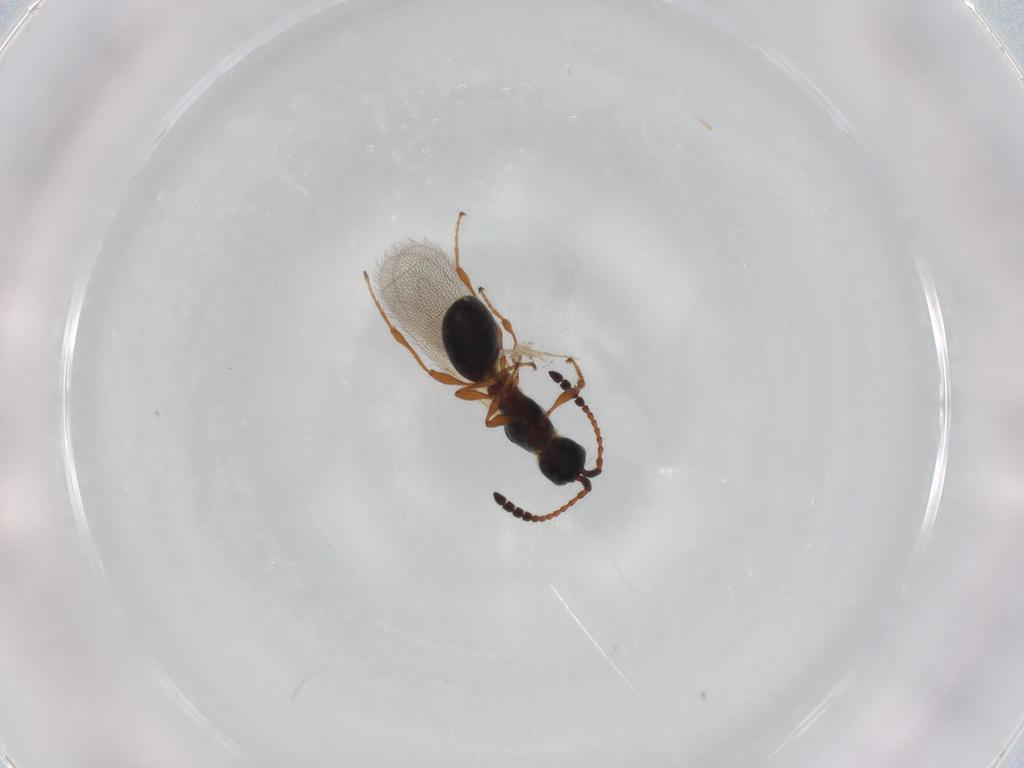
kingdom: Animalia
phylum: Arthropoda
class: Insecta
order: Hymenoptera
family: Diapriidae
